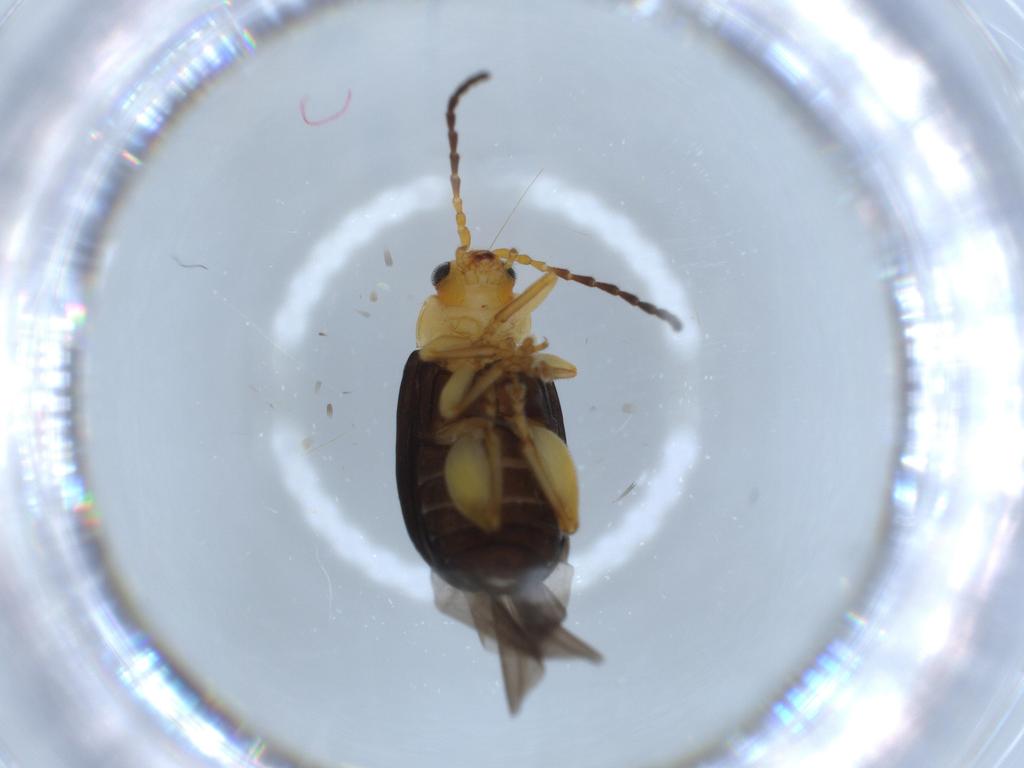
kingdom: Animalia
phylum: Arthropoda
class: Insecta
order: Coleoptera
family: Chrysomelidae
